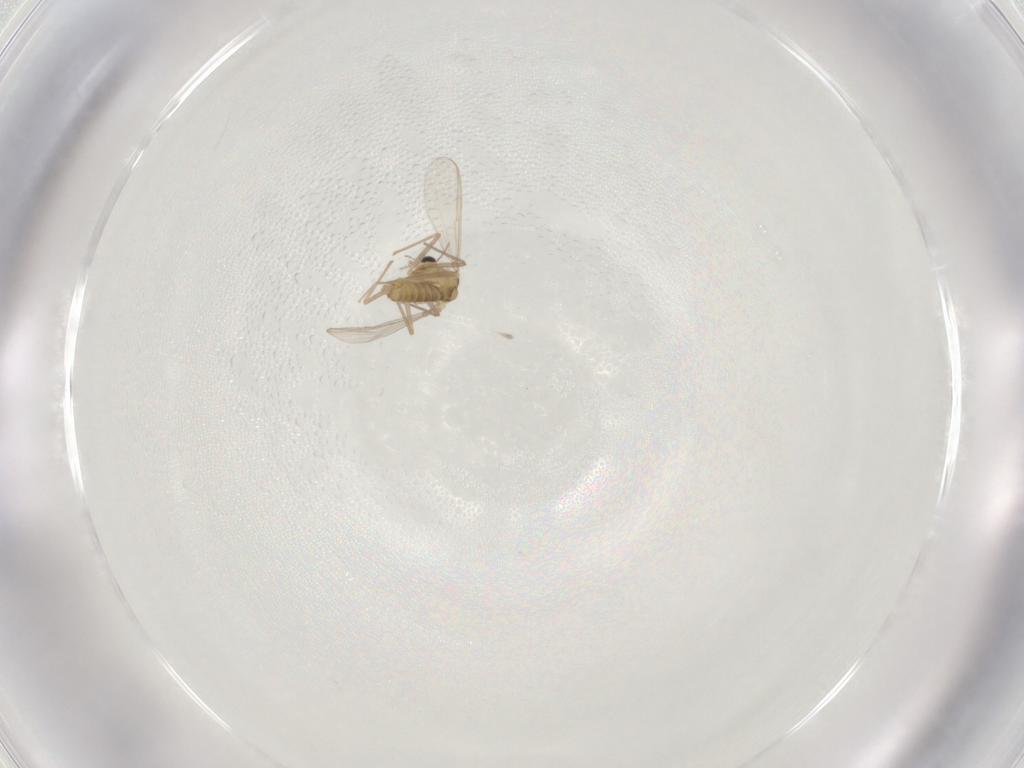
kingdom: Animalia
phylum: Arthropoda
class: Insecta
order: Diptera
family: Chironomidae
